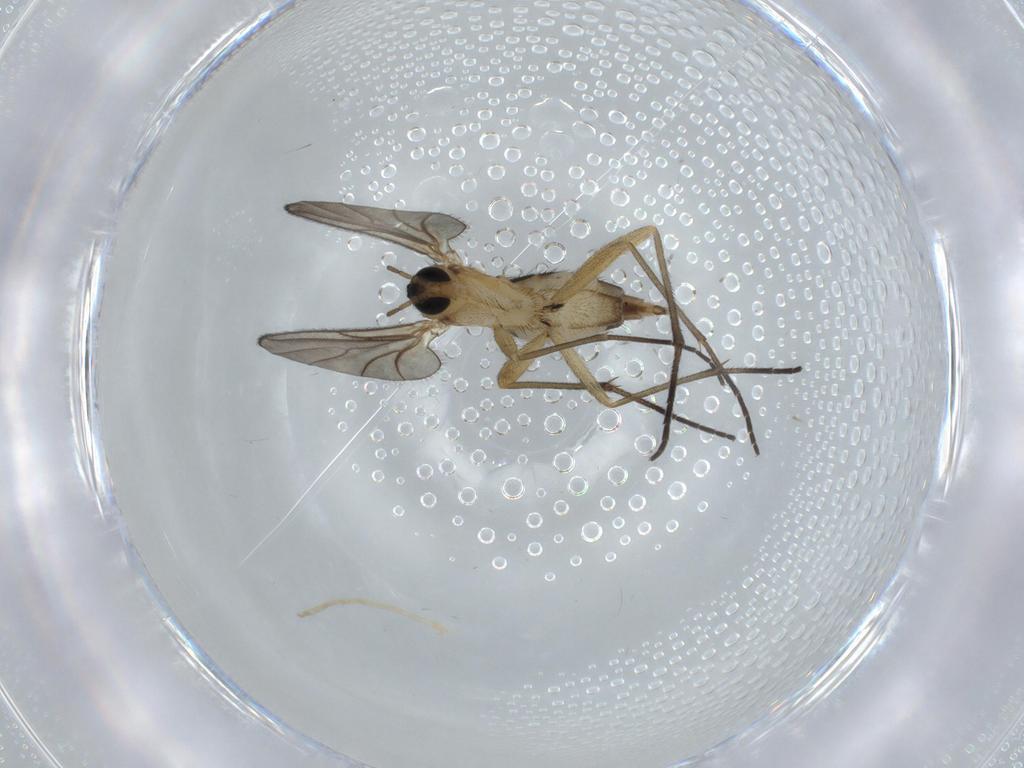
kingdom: Animalia
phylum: Arthropoda
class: Insecta
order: Diptera
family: Sciaridae
